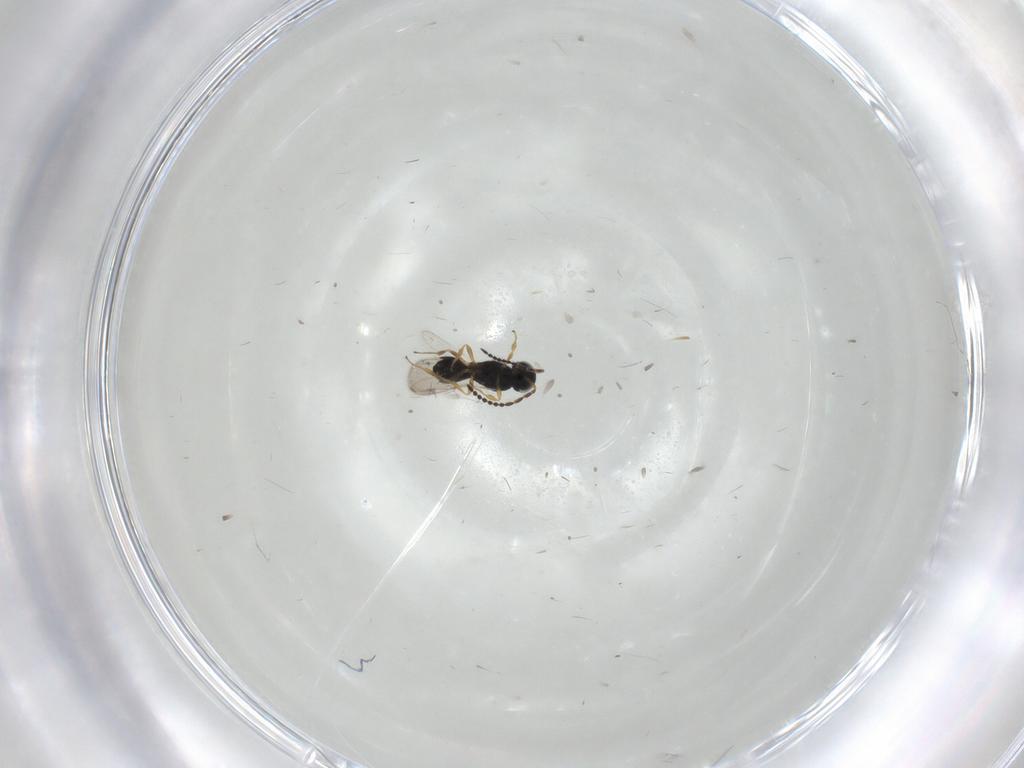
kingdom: Animalia
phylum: Arthropoda
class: Insecta
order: Hymenoptera
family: Scelionidae
